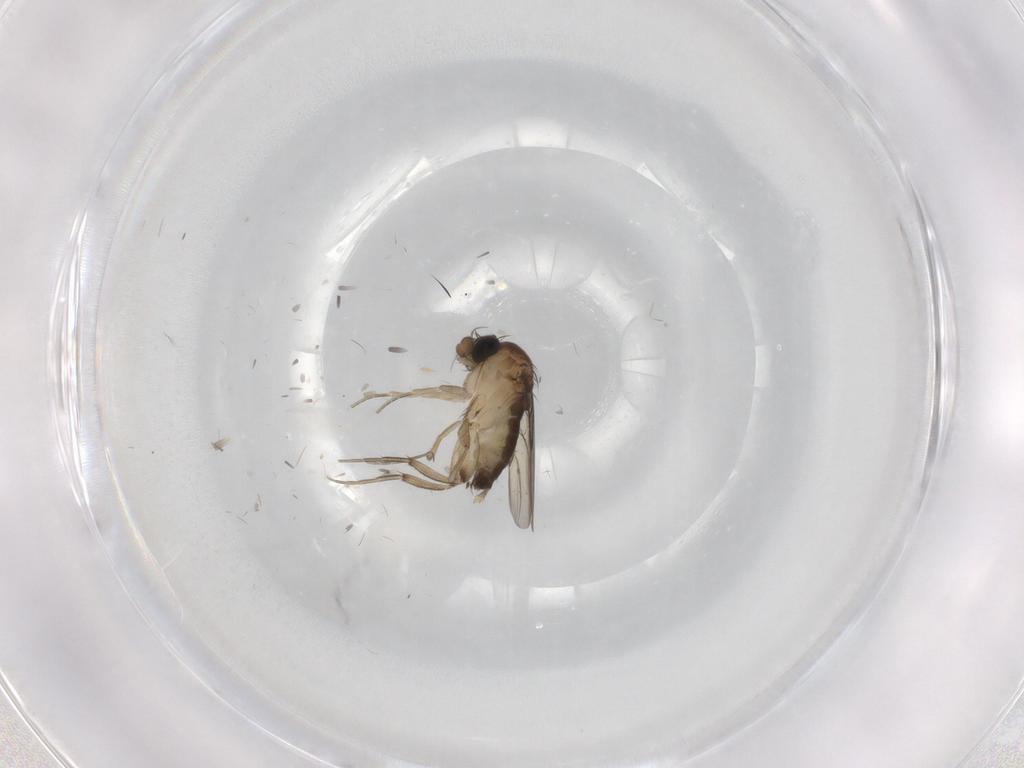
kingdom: Animalia
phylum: Arthropoda
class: Insecta
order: Diptera
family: Phoridae
